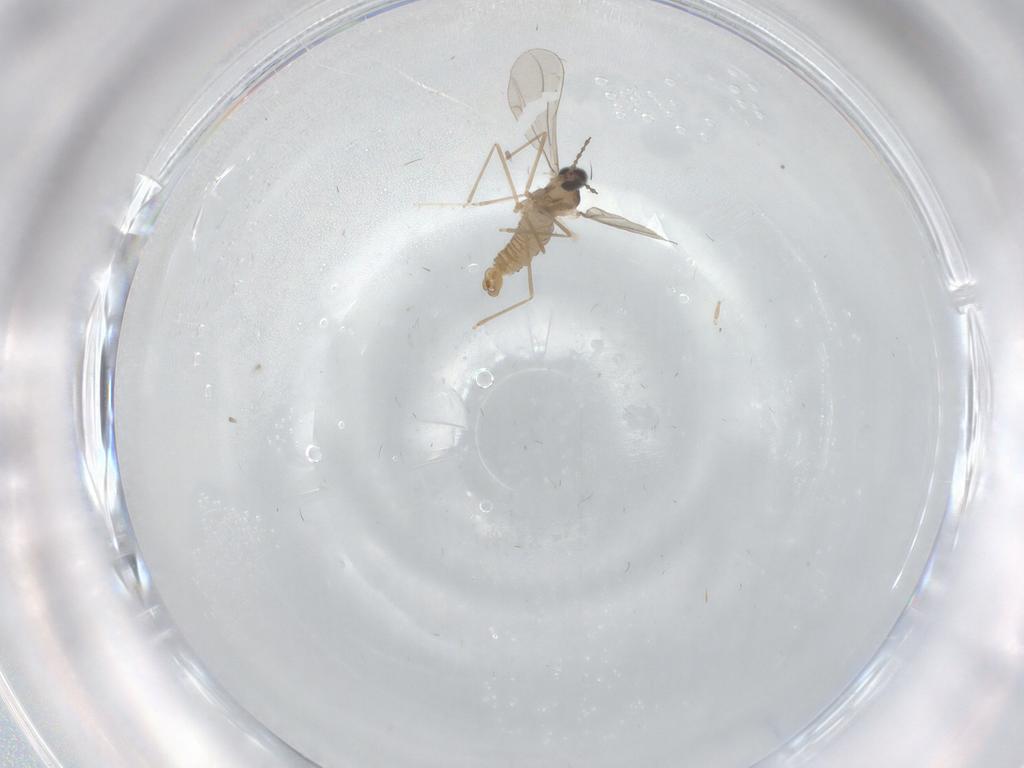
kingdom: Animalia
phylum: Arthropoda
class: Insecta
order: Diptera
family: Cecidomyiidae
